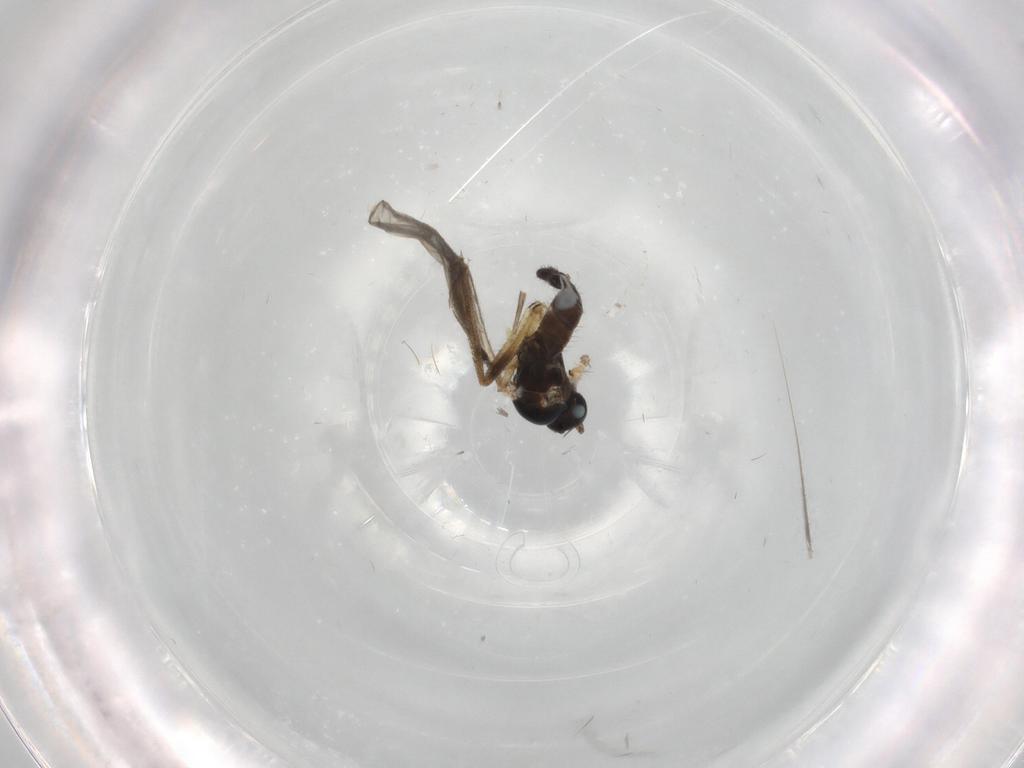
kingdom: Animalia
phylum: Arthropoda
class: Insecta
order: Diptera
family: Sciaridae
